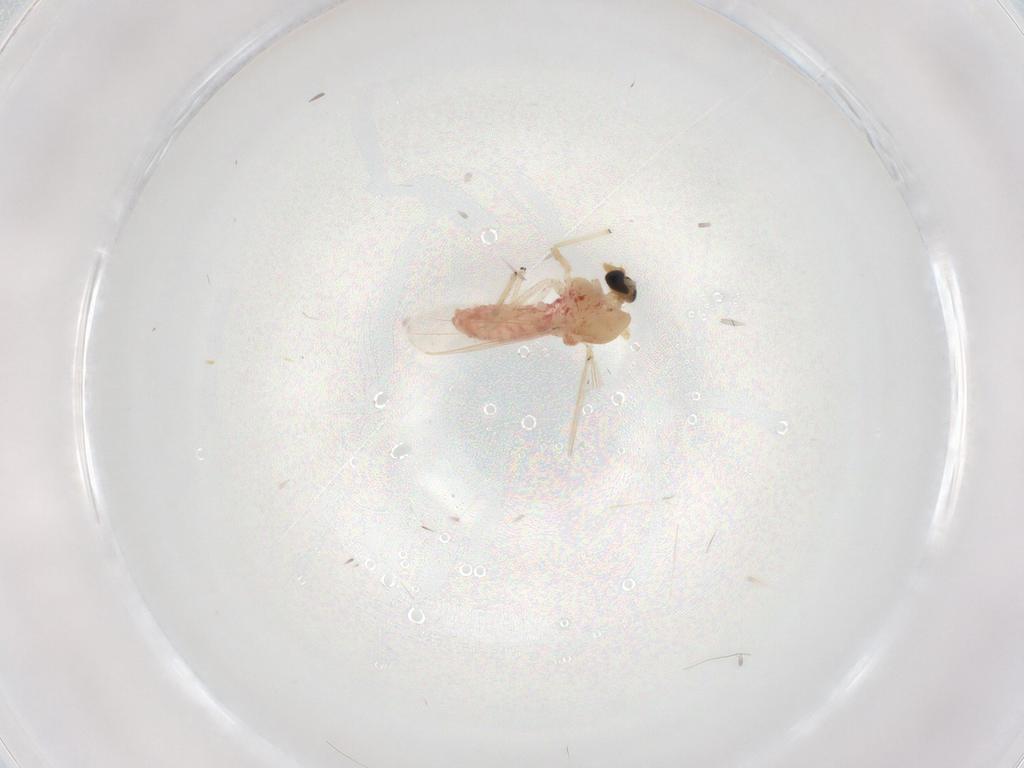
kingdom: Animalia
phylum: Arthropoda
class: Insecta
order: Diptera
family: Chironomidae
